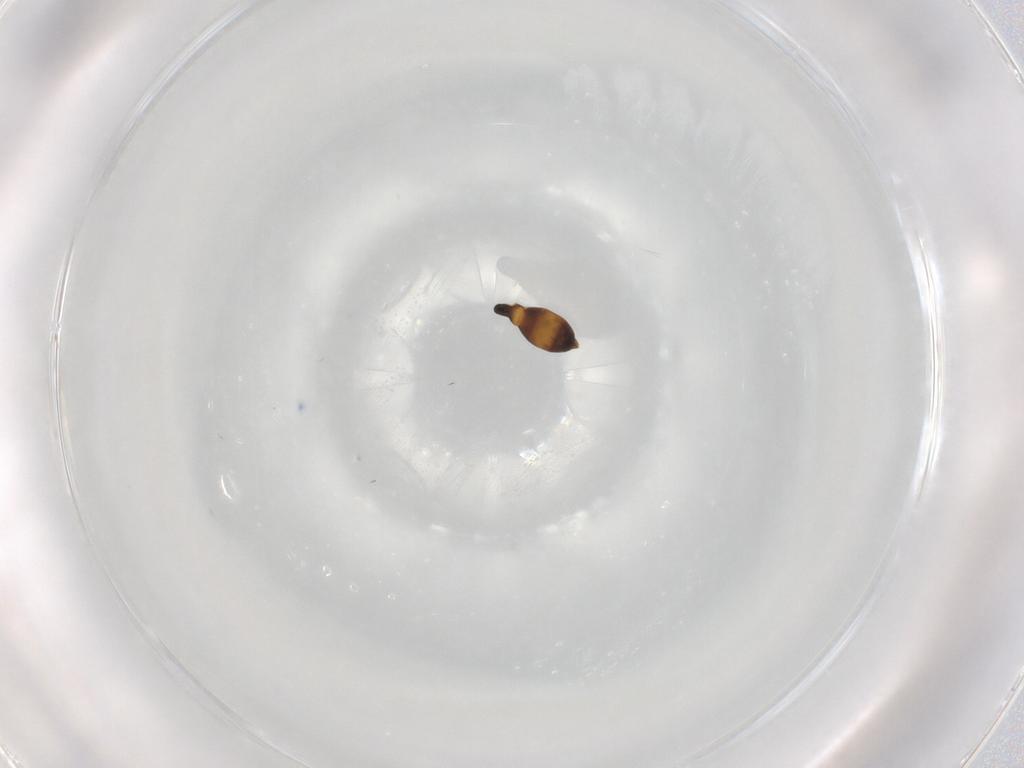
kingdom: Animalia
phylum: Arthropoda
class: Insecta
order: Hymenoptera
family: Scelionidae
